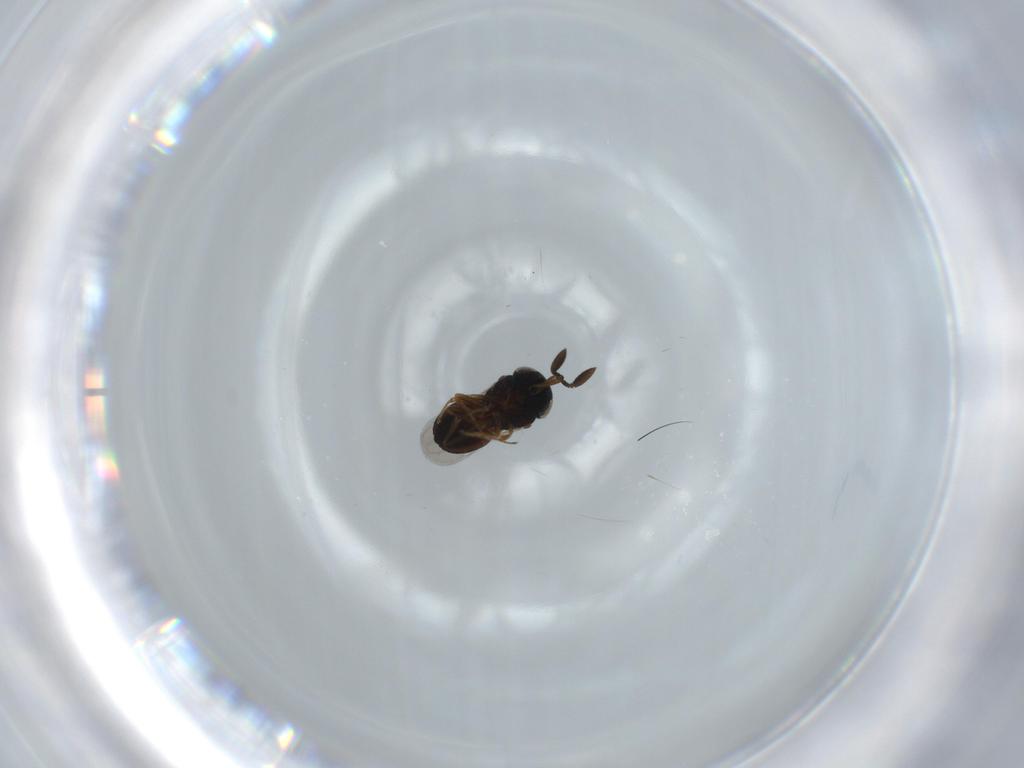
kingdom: Animalia
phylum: Arthropoda
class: Insecta
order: Hymenoptera
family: Scelionidae
